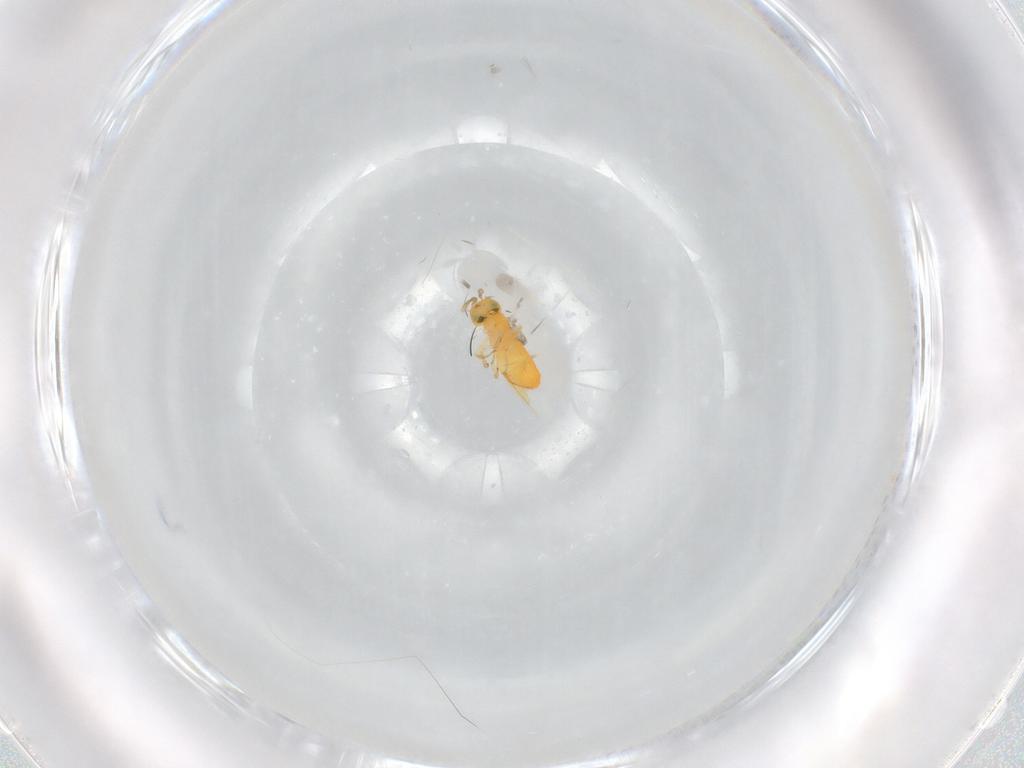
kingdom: Animalia
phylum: Arthropoda
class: Insecta
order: Hymenoptera
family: Encyrtidae
